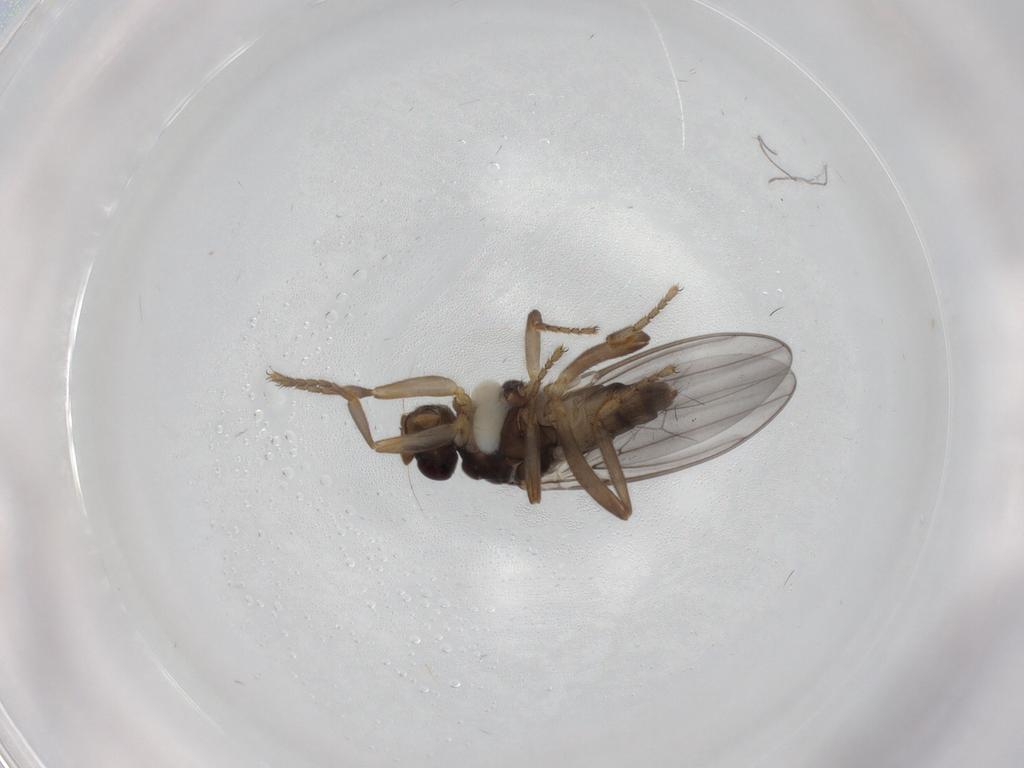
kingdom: Animalia
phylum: Arthropoda
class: Insecta
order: Diptera
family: Sphaeroceridae
